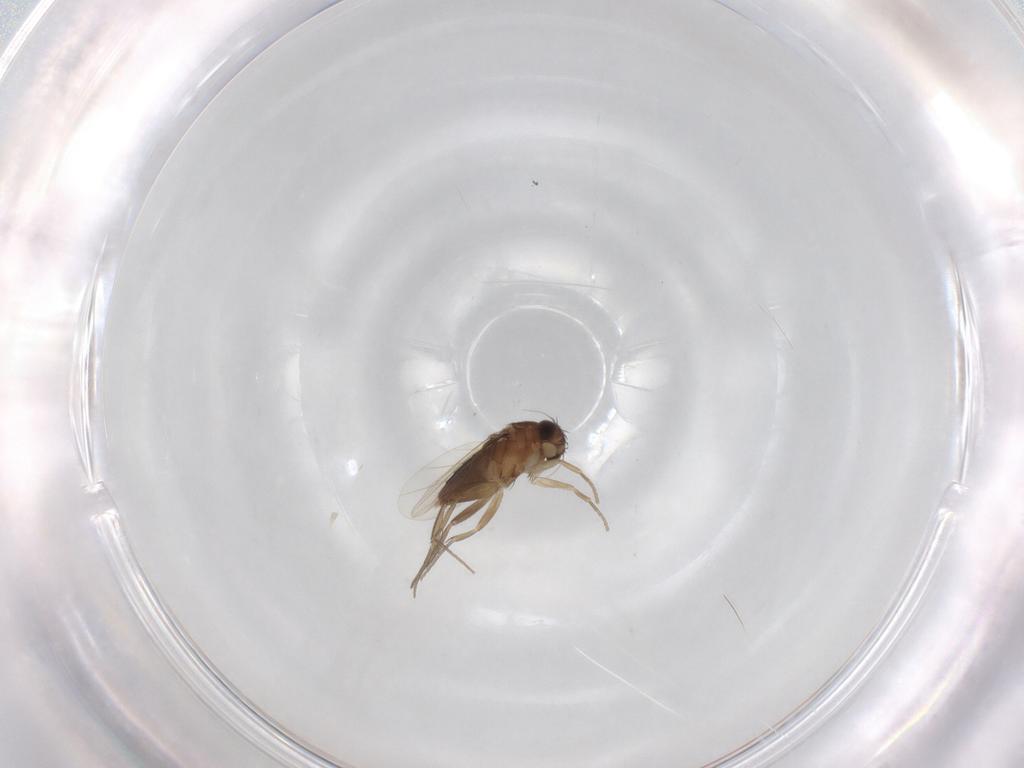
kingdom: Animalia
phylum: Arthropoda
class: Insecta
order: Diptera
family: Phoridae
